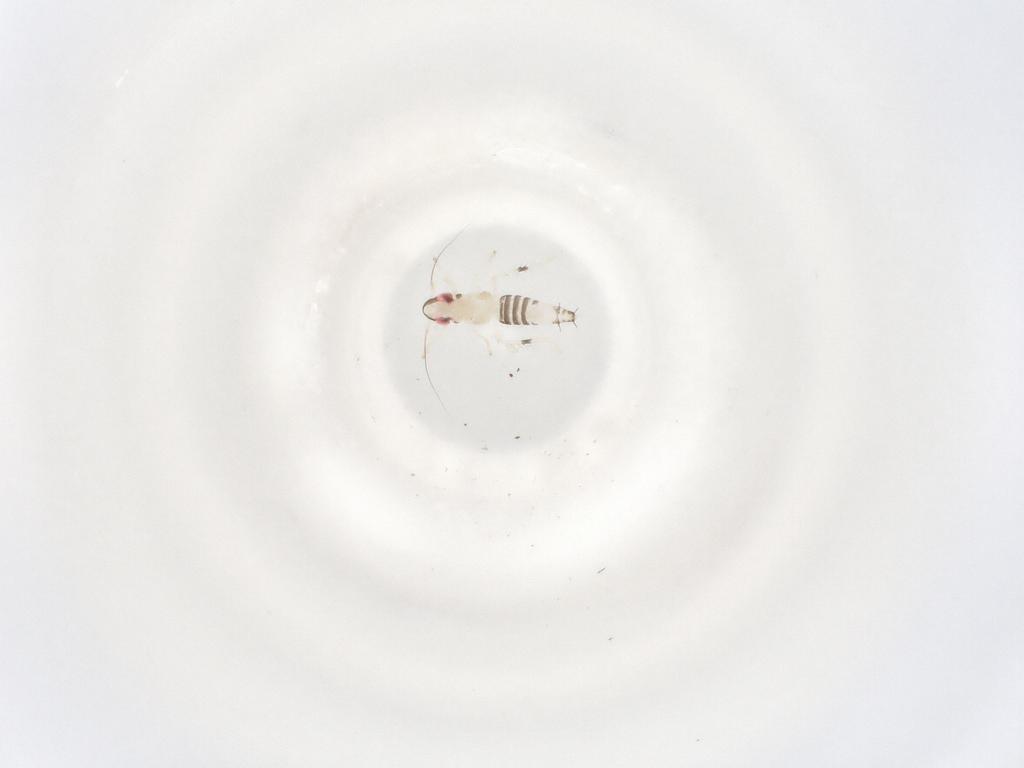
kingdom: Animalia
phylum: Arthropoda
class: Insecta
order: Hemiptera
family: Cicadellidae
